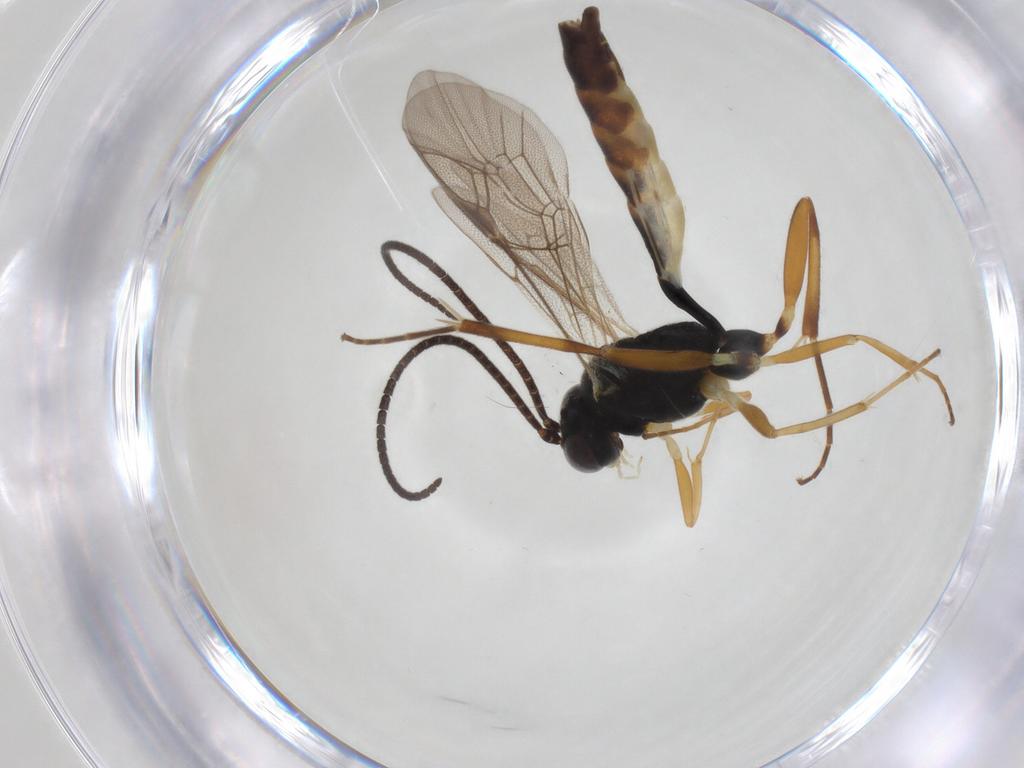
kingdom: Animalia
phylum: Arthropoda
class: Insecta
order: Hymenoptera
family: Ichneumonidae
